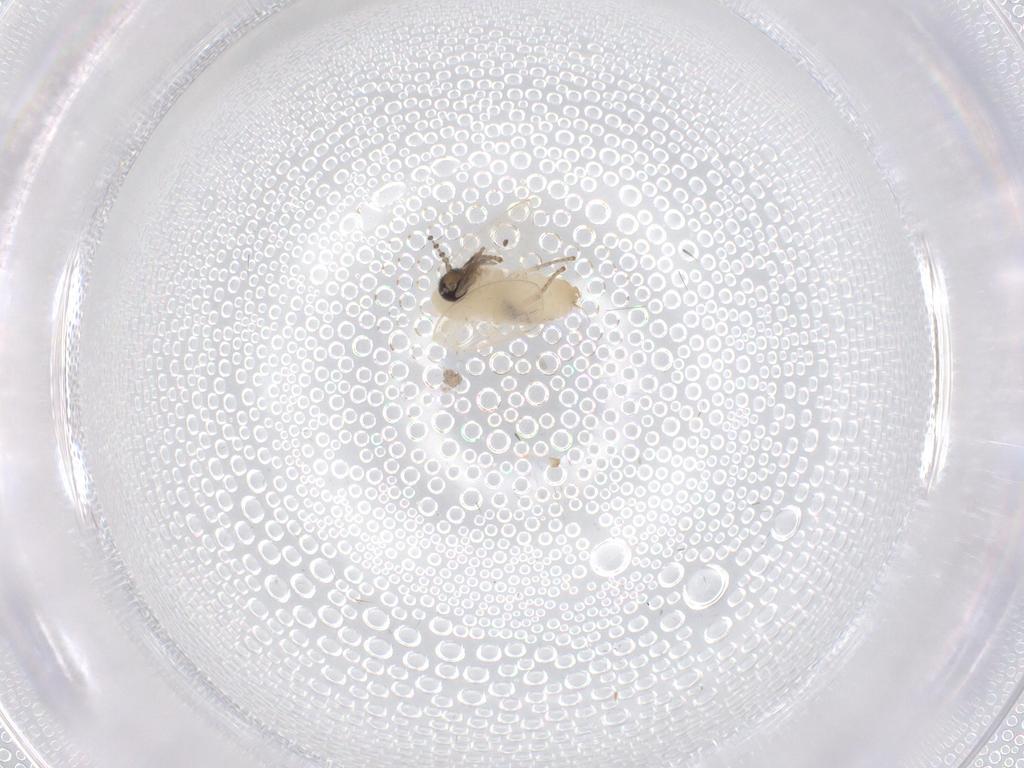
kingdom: Animalia
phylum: Arthropoda
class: Insecta
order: Diptera
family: Psychodidae
